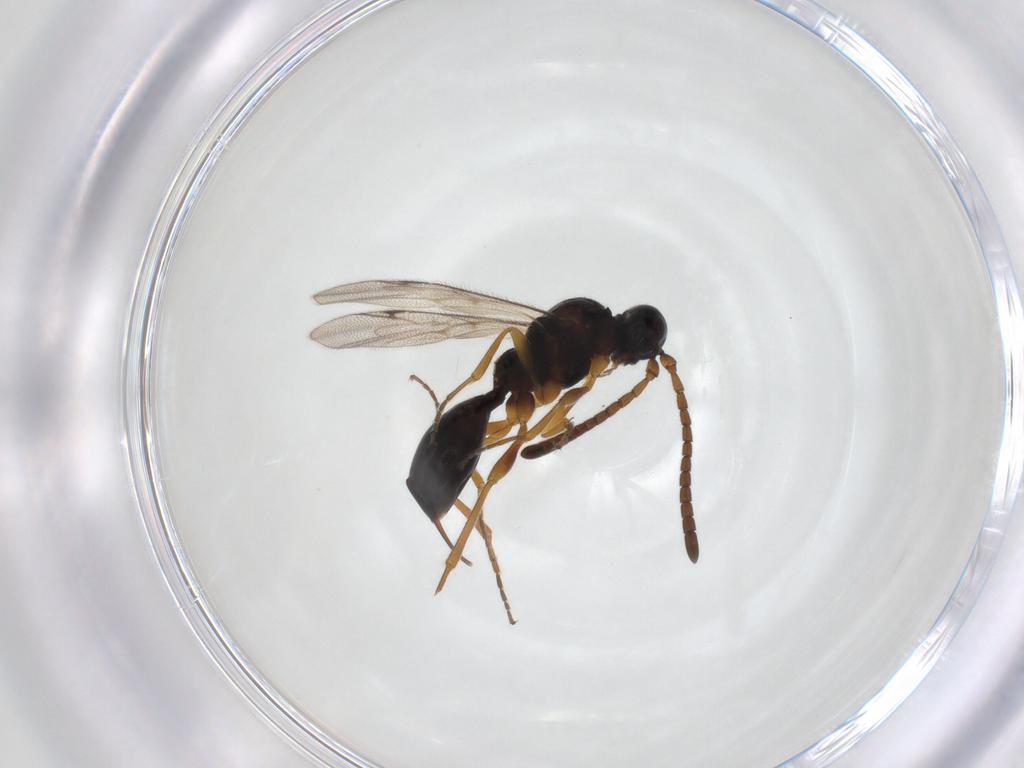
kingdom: Animalia
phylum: Arthropoda
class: Insecta
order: Hymenoptera
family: Proctotrupidae
